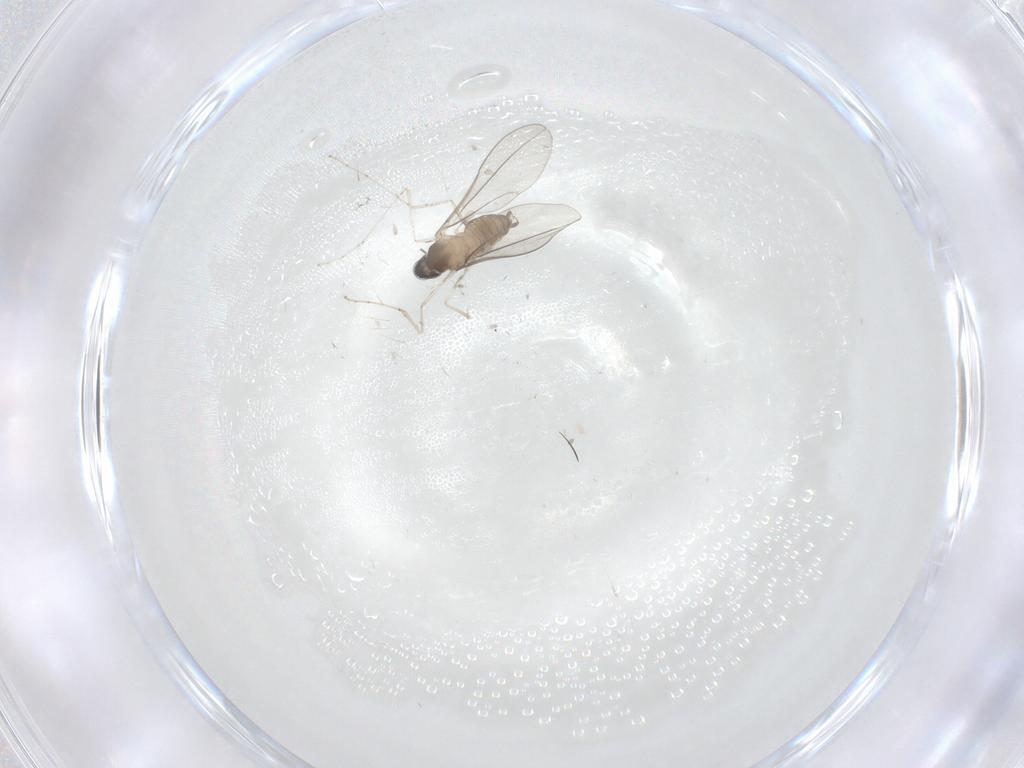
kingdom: Animalia
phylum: Arthropoda
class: Insecta
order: Diptera
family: Cecidomyiidae
